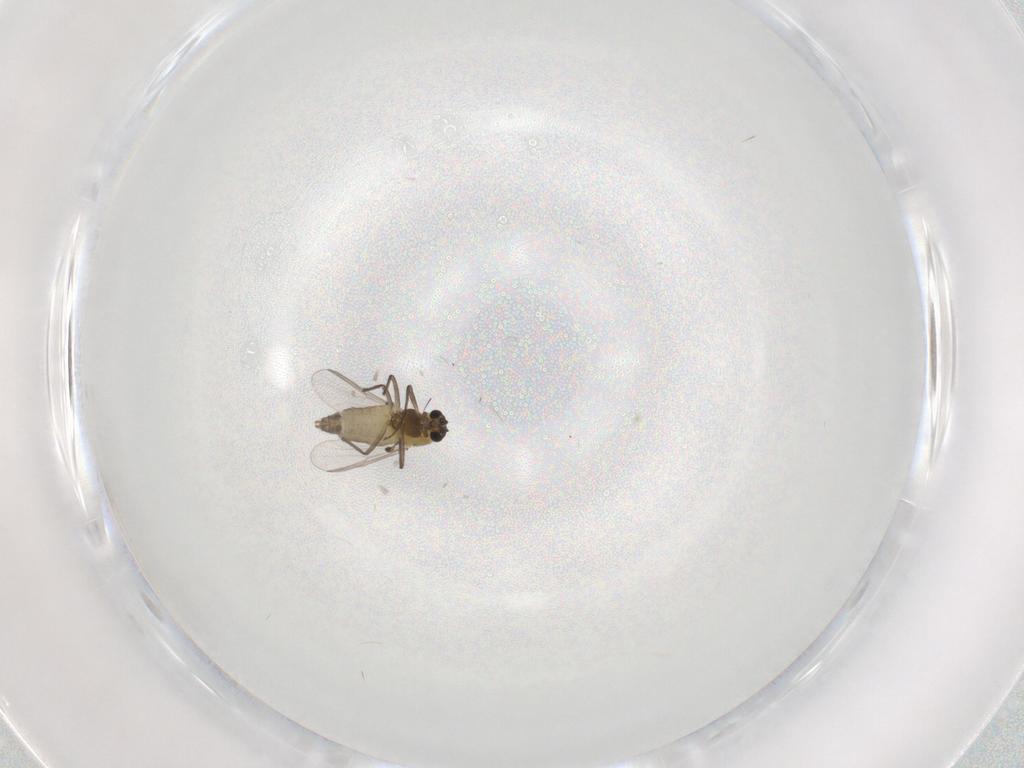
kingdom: Animalia
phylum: Arthropoda
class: Insecta
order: Diptera
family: Chironomidae
